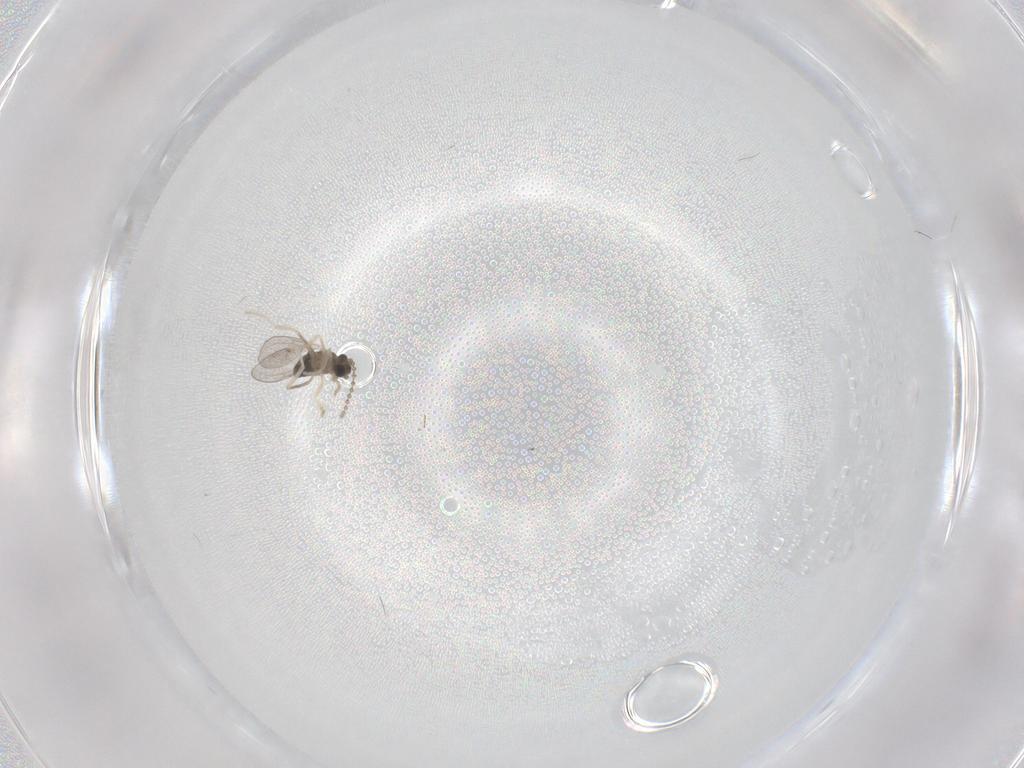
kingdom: Animalia
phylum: Arthropoda
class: Insecta
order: Diptera
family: Cecidomyiidae
